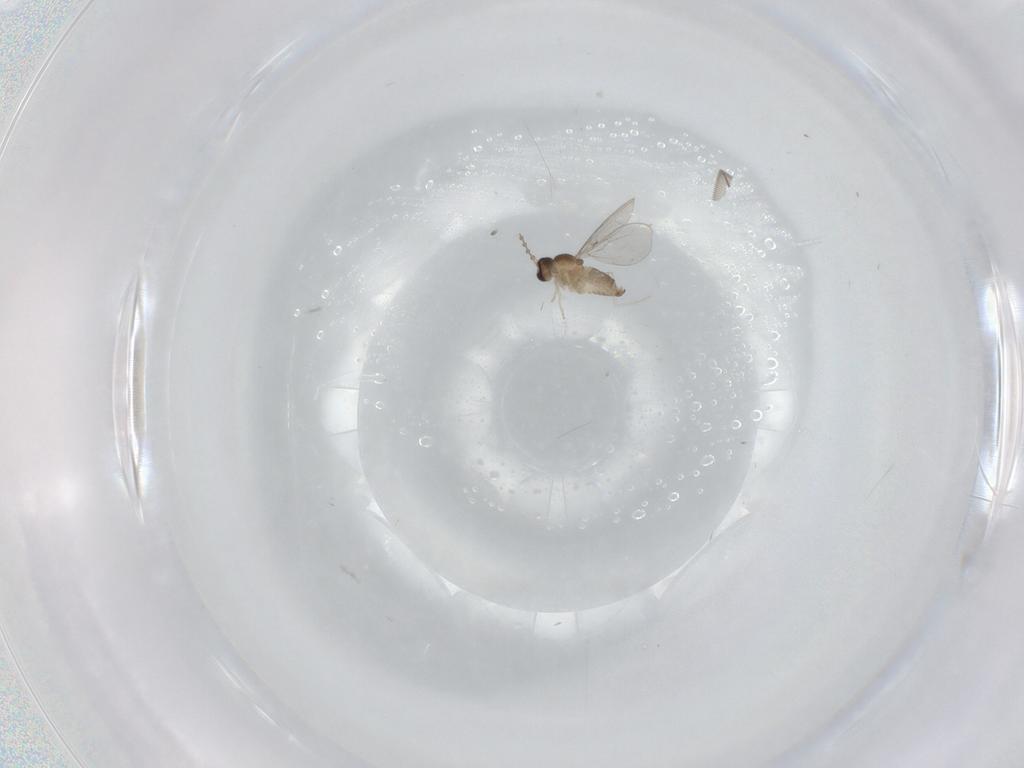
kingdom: Animalia
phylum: Arthropoda
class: Insecta
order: Diptera
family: Cecidomyiidae
